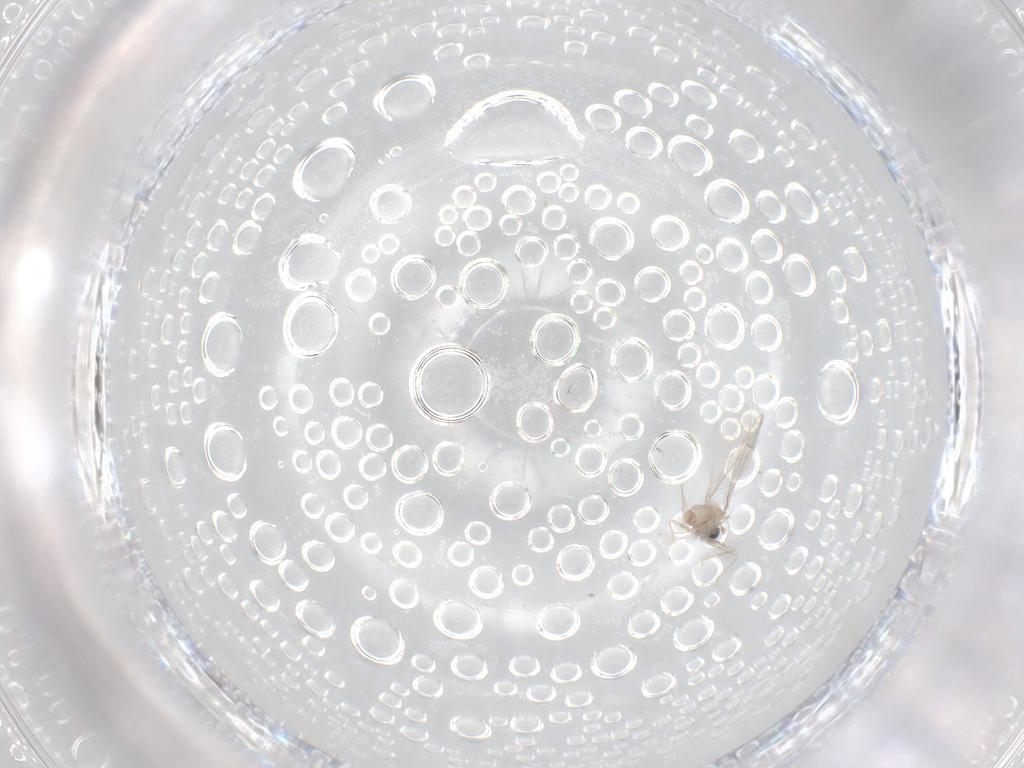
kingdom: Animalia
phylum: Arthropoda
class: Insecta
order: Diptera
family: Cecidomyiidae
